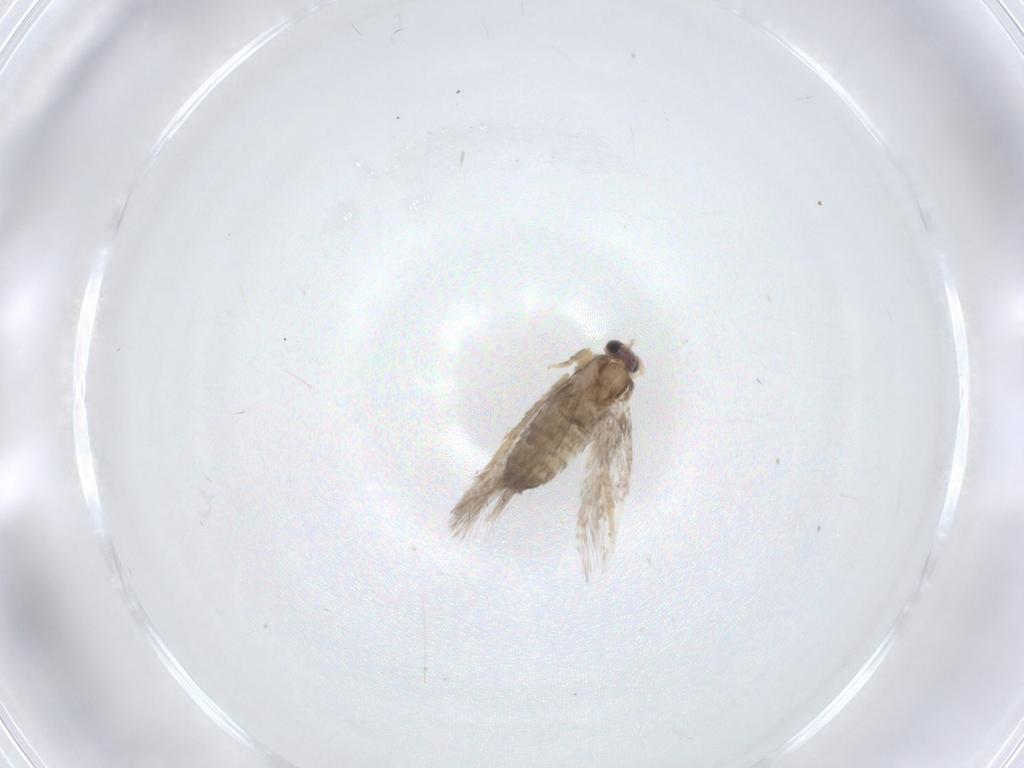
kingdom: Animalia
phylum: Arthropoda
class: Insecta
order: Lepidoptera
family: Nepticulidae
